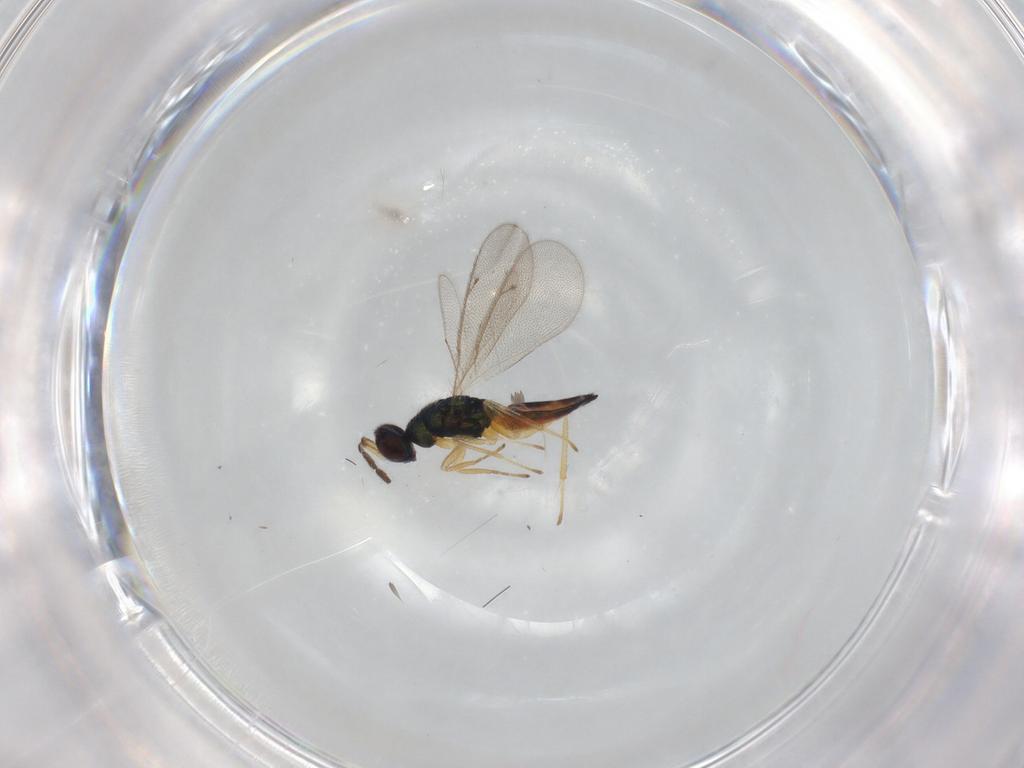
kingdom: Animalia
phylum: Arthropoda
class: Insecta
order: Hymenoptera
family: Eulophidae
